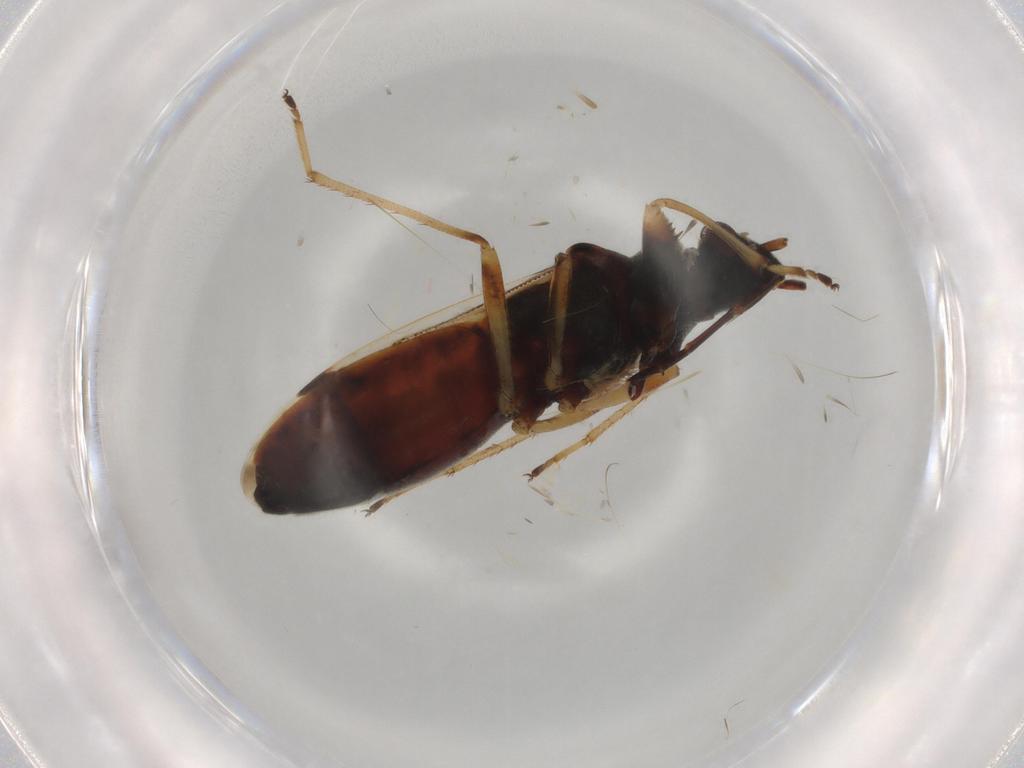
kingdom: Animalia
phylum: Arthropoda
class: Insecta
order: Hemiptera
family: Rhyparochromidae
